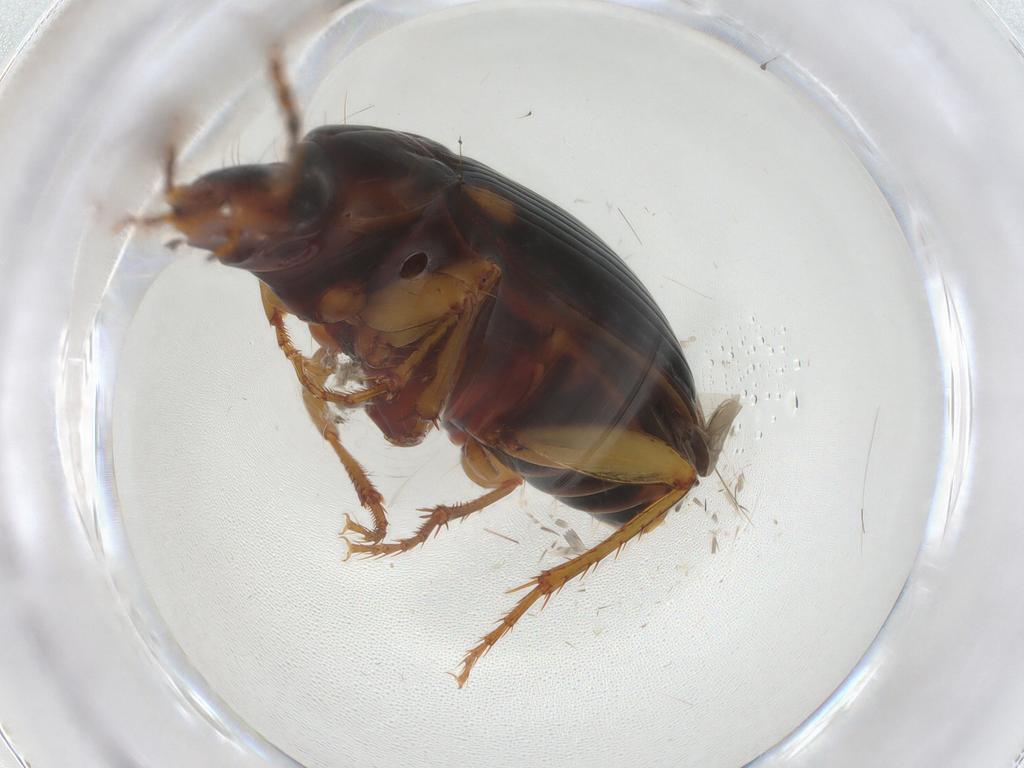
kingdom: Animalia
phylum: Arthropoda
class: Insecta
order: Coleoptera
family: Carabidae
